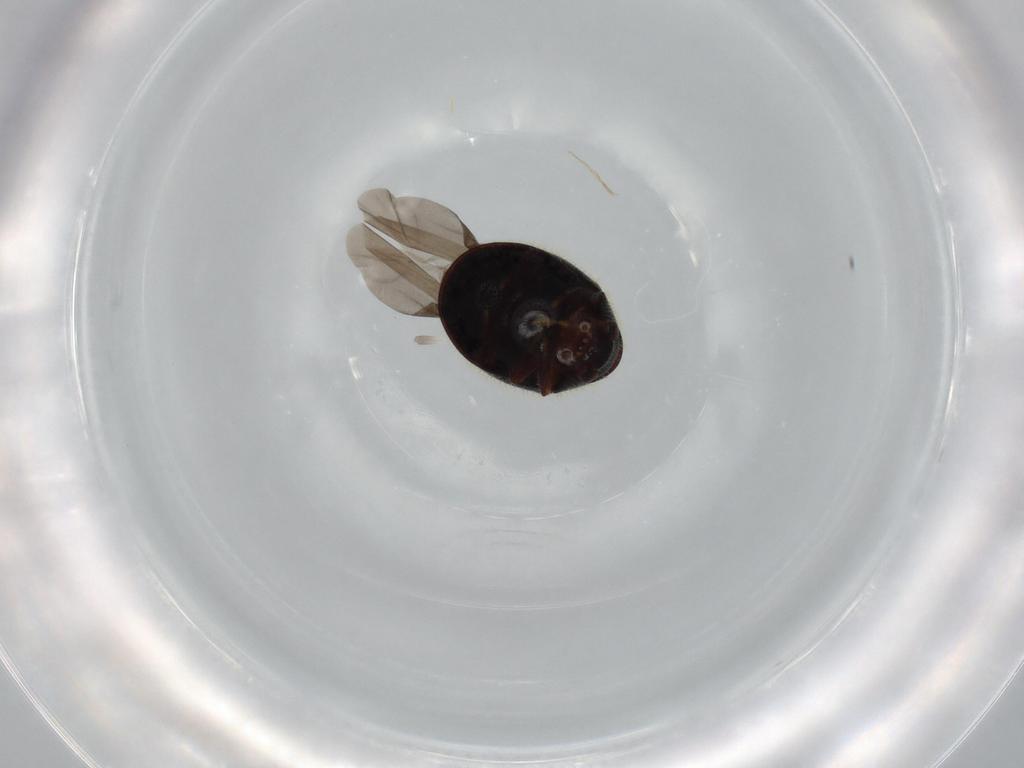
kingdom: Animalia
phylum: Arthropoda
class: Insecta
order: Coleoptera
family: Ptinidae
